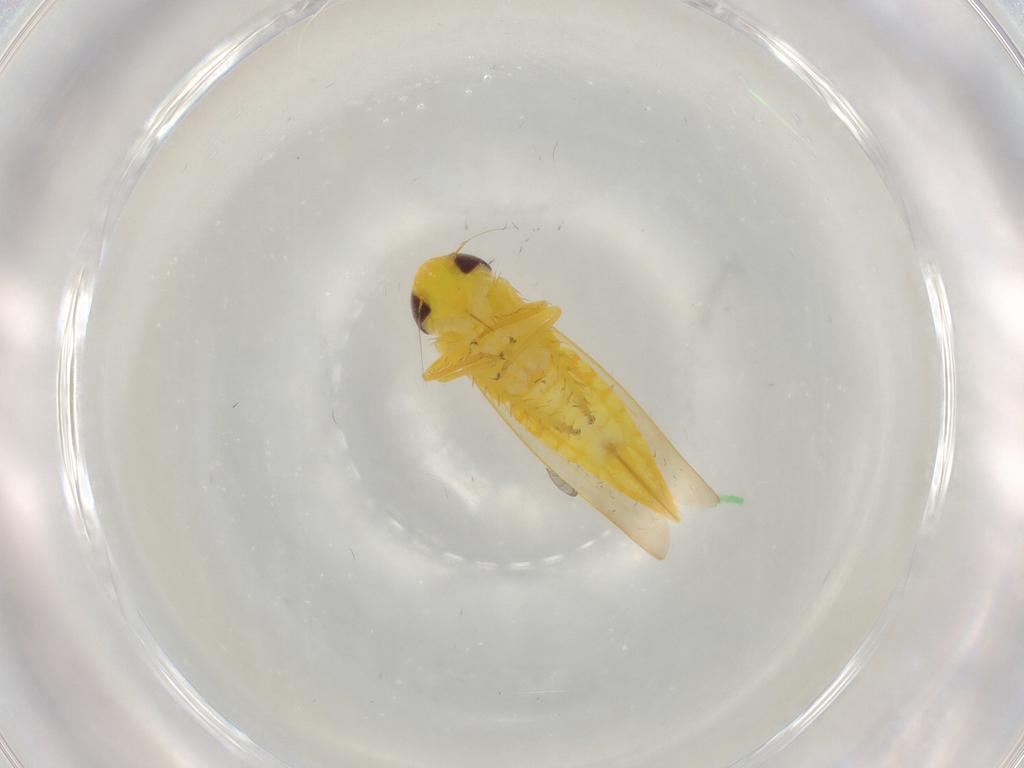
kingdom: Animalia
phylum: Arthropoda
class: Insecta
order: Hemiptera
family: Cicadellidae
